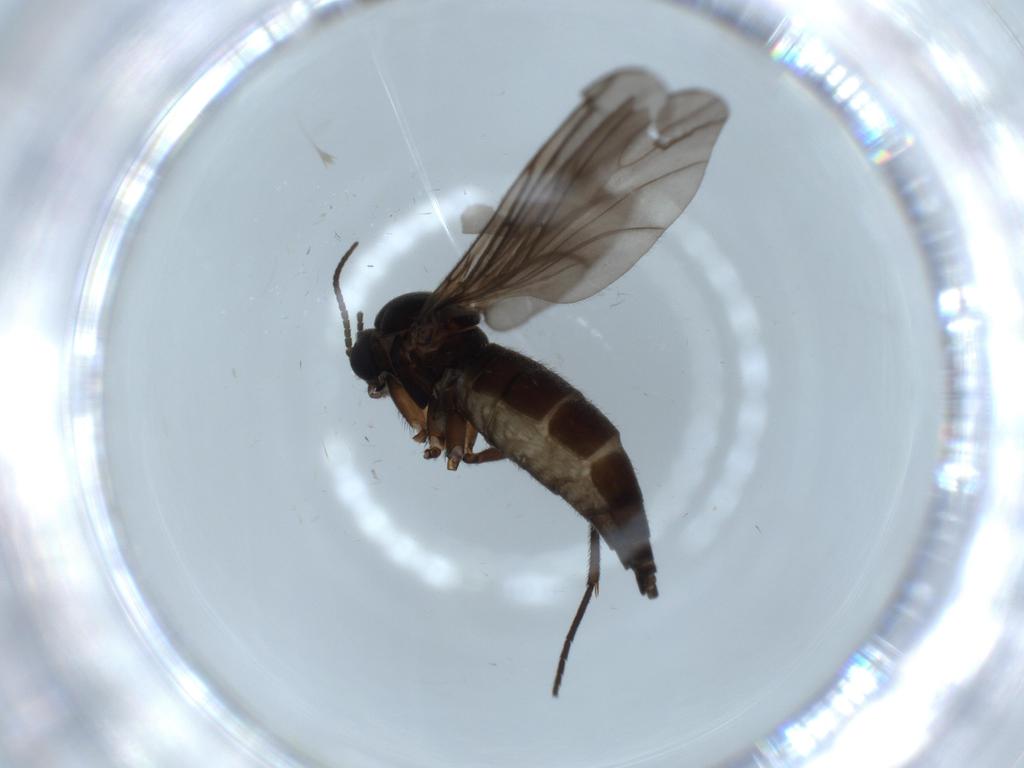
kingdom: Animalia
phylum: Arthropoda
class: Insecta
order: Diptera
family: Sciaridae
